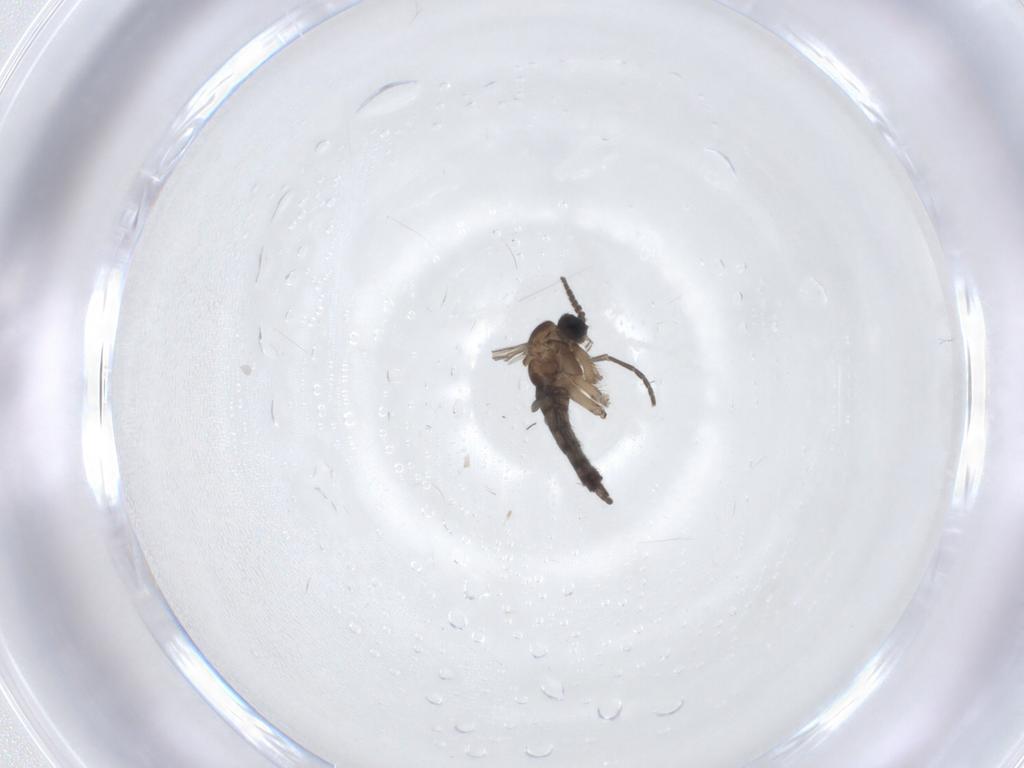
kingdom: Animalia
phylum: Arthropoda
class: Insecta
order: Diptera
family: Sciaridae
